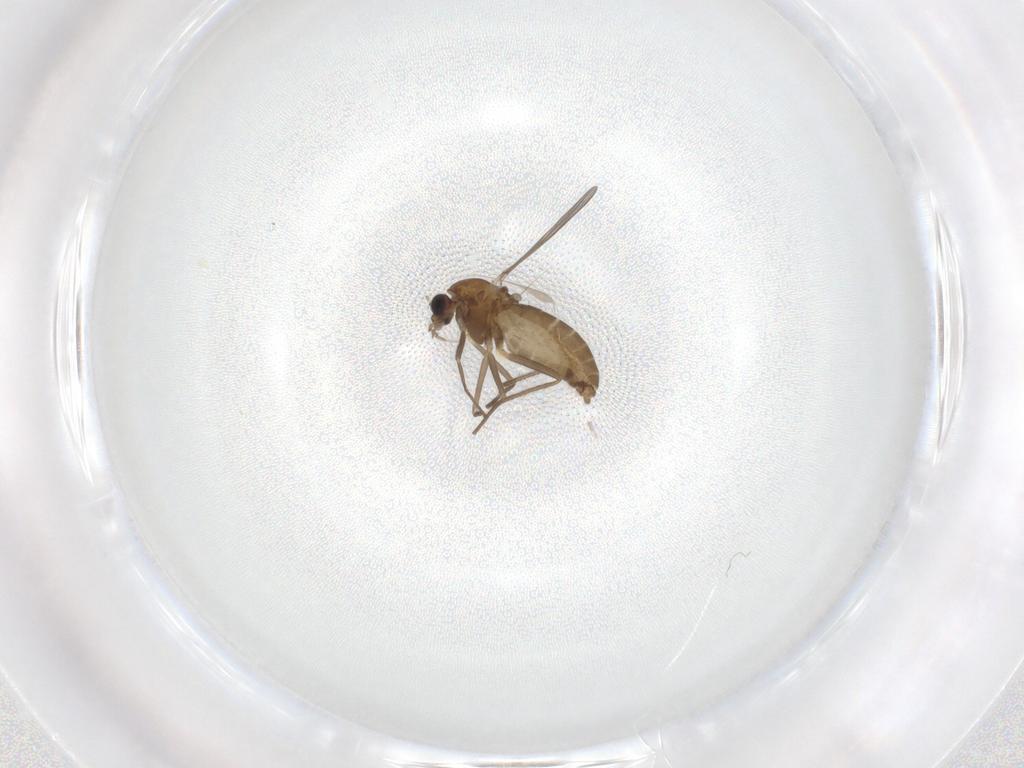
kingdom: Animalia
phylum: Arthropoda
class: Insecta
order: Diptera
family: Chironomidae
